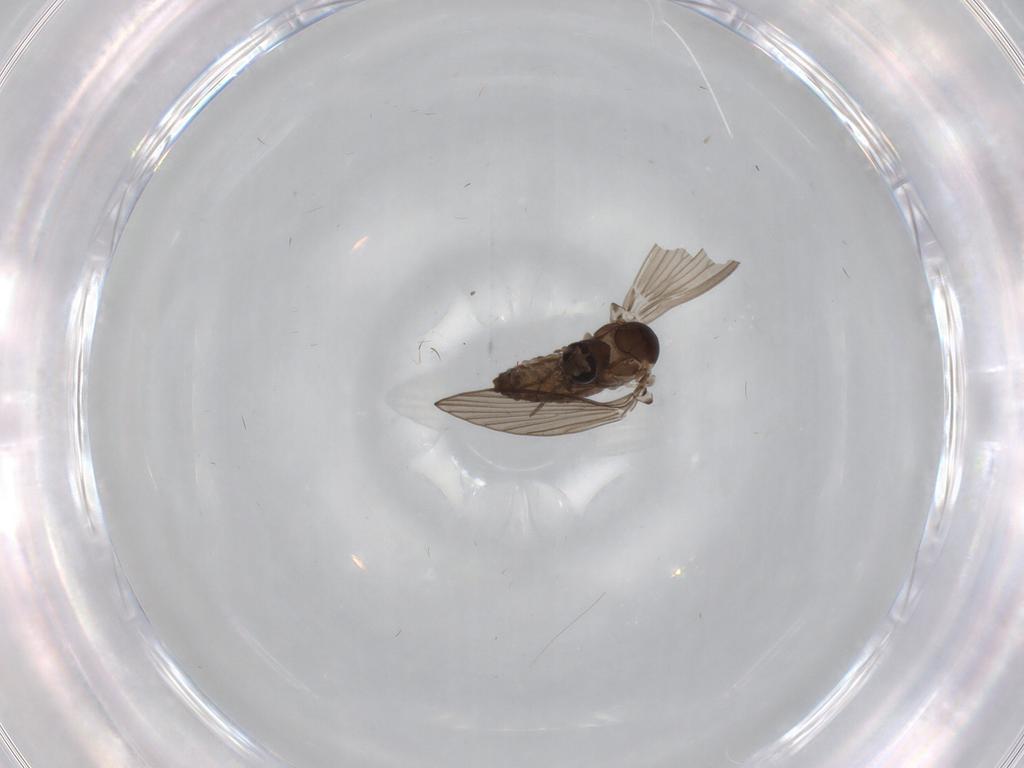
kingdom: Animalia
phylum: Arthropoda
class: Insecta
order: Diptera
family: Psychodidae
